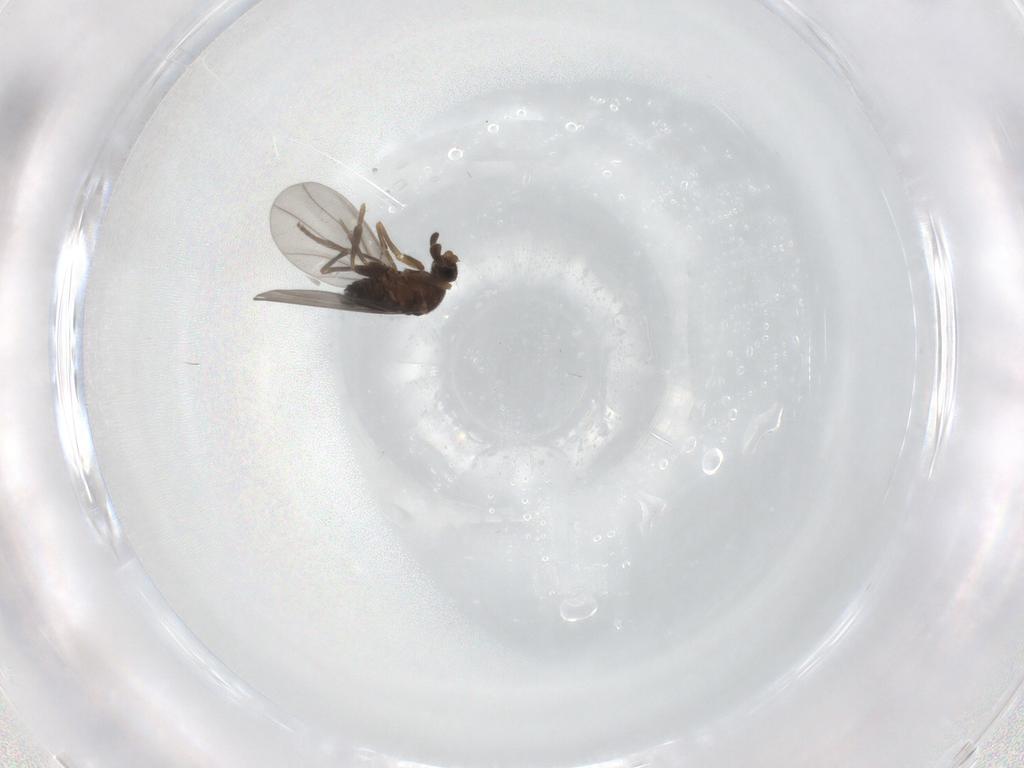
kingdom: Animalia
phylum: Arthropoda
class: Insecta
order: Diptera
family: Phoridae
